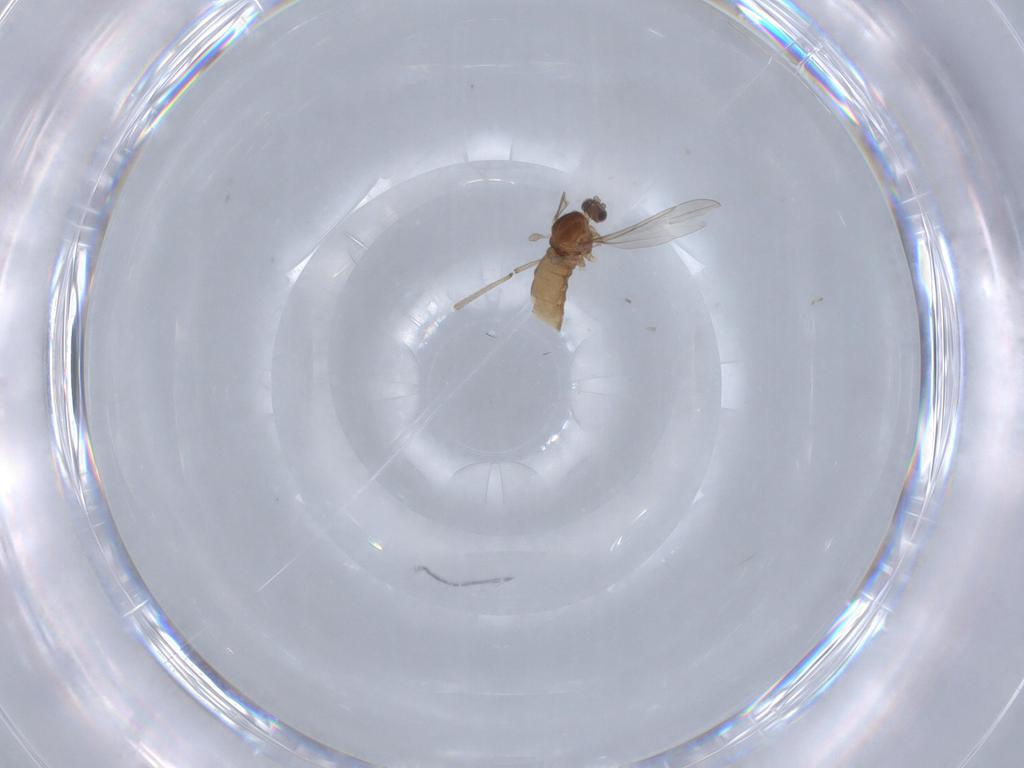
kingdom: Animalia
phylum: Arthropoda
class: Insecta
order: Diptera
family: Cecidomyiidae
